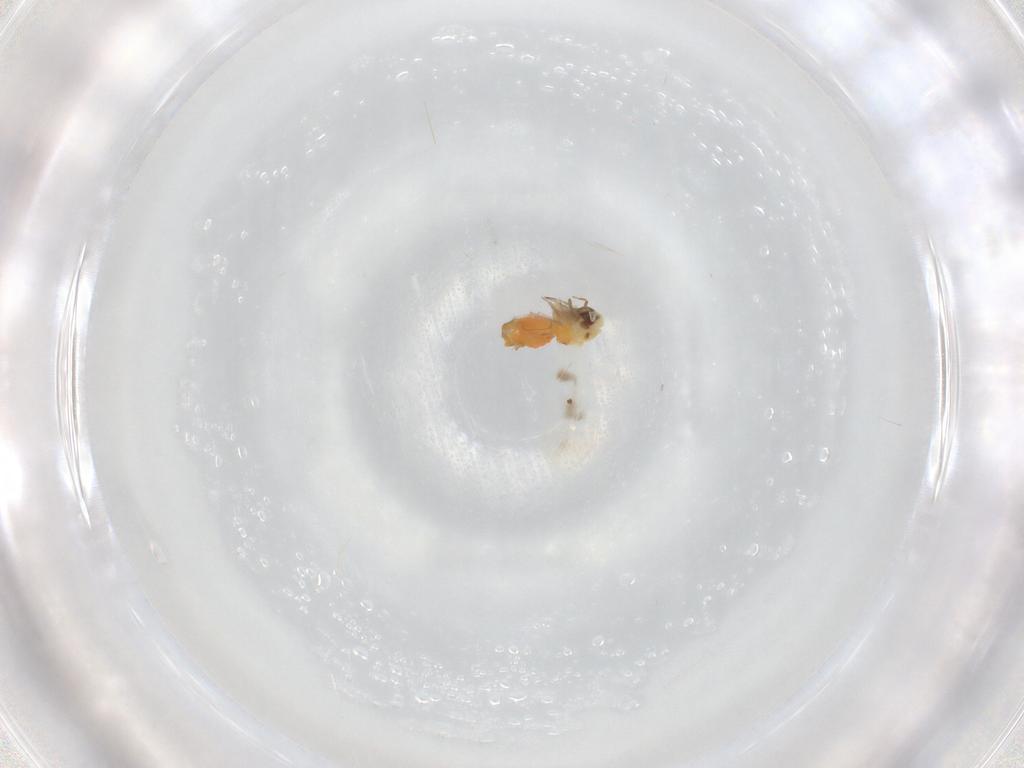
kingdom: Animalia
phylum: Arthropoda
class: Insecta
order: Hemiptera
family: Aleyrodidae
